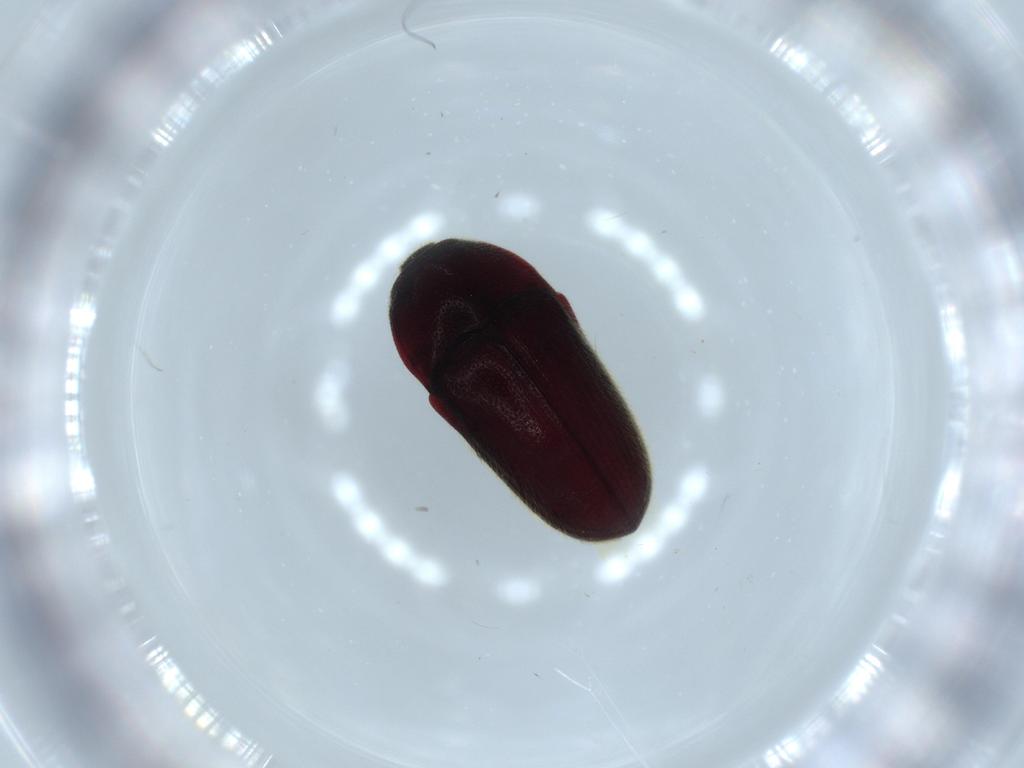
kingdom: Animalia
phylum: Arthropoda
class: Insecta
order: Coleoptera
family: Throscidae
